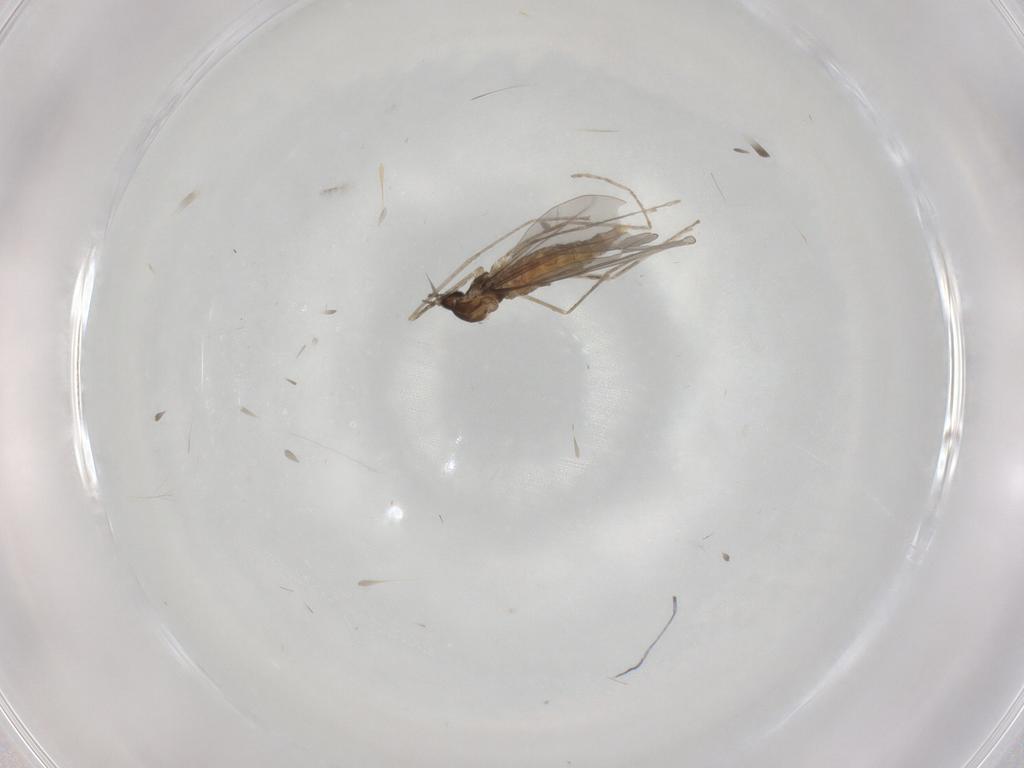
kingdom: Animalia
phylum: Arthropoda
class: Insecta
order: Diptera
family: Cecidomyiidae
